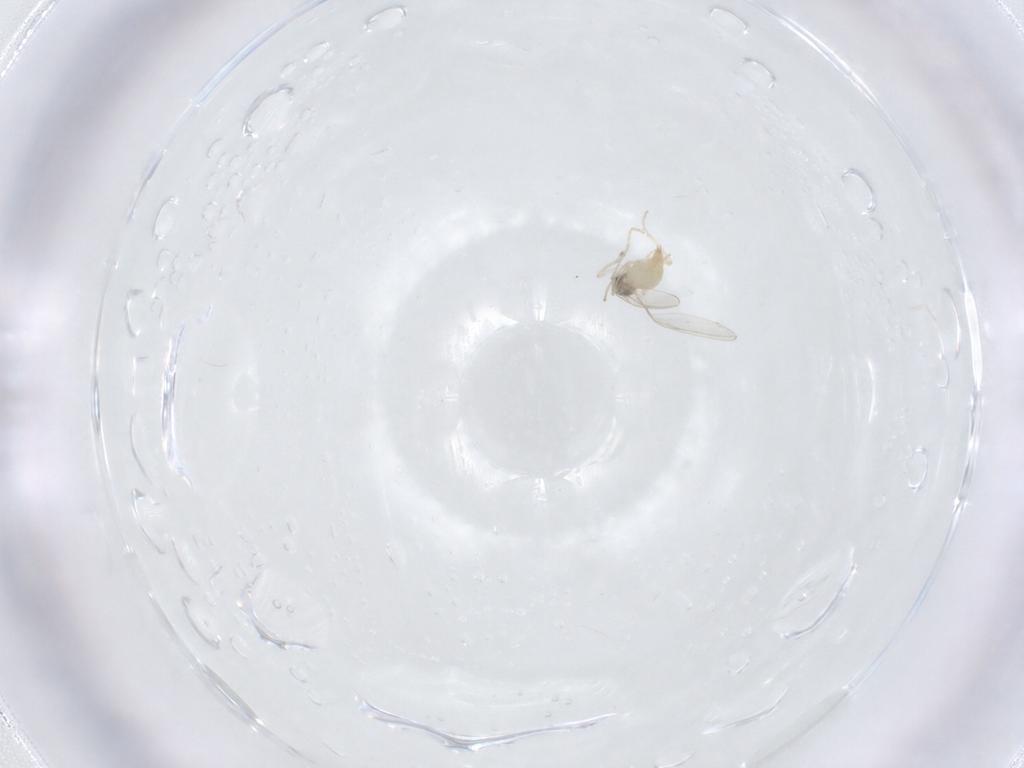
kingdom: Animalia
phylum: Arthropoda
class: Insecta
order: Diptera
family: Cecidomyiidae
